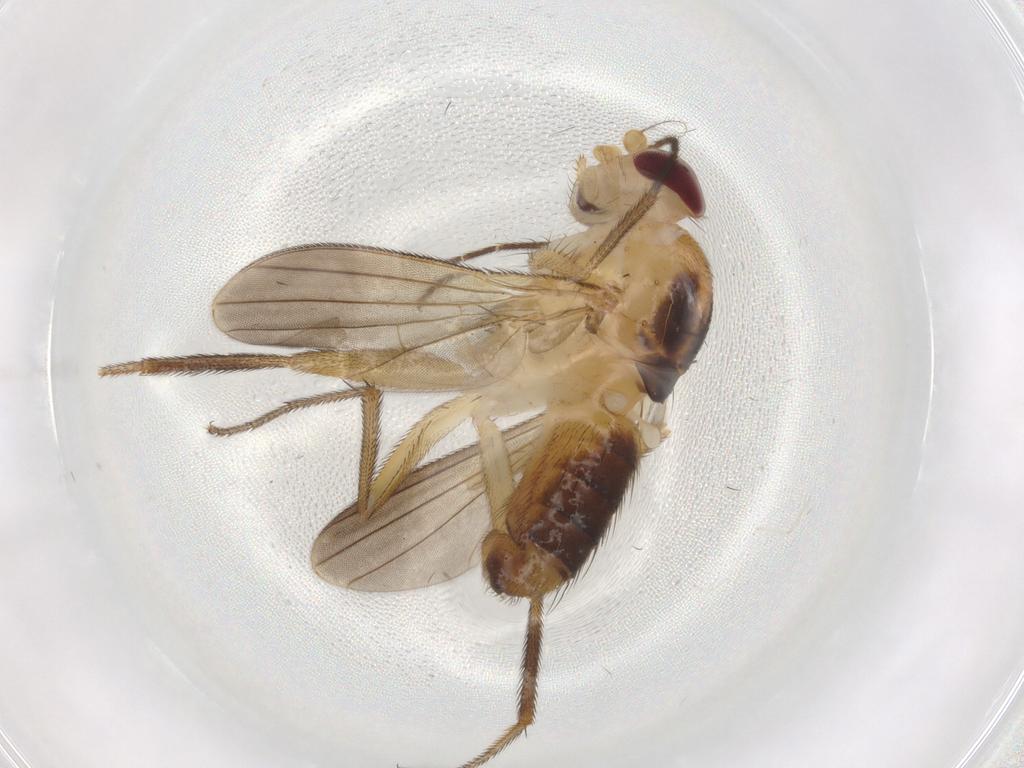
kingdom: Animalia
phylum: Arthropoda
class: Insecta
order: Diptera
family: Clusiidae
